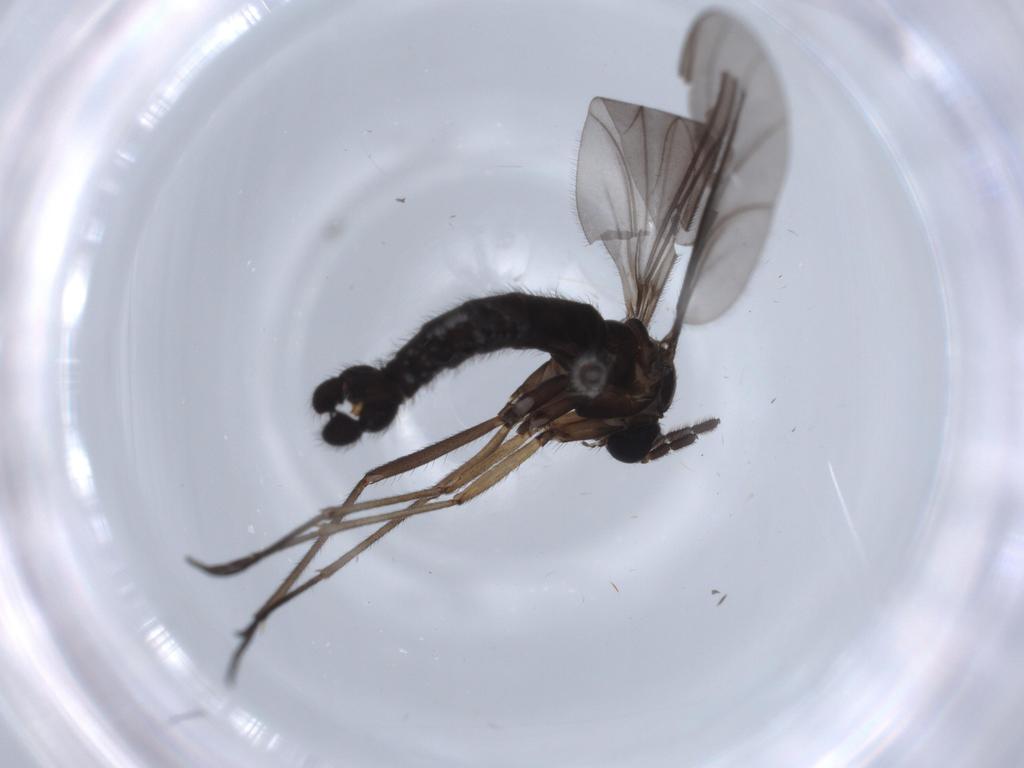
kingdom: Animalia
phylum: Arthropoda
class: Insecta
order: Diptera
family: Sciaridae
